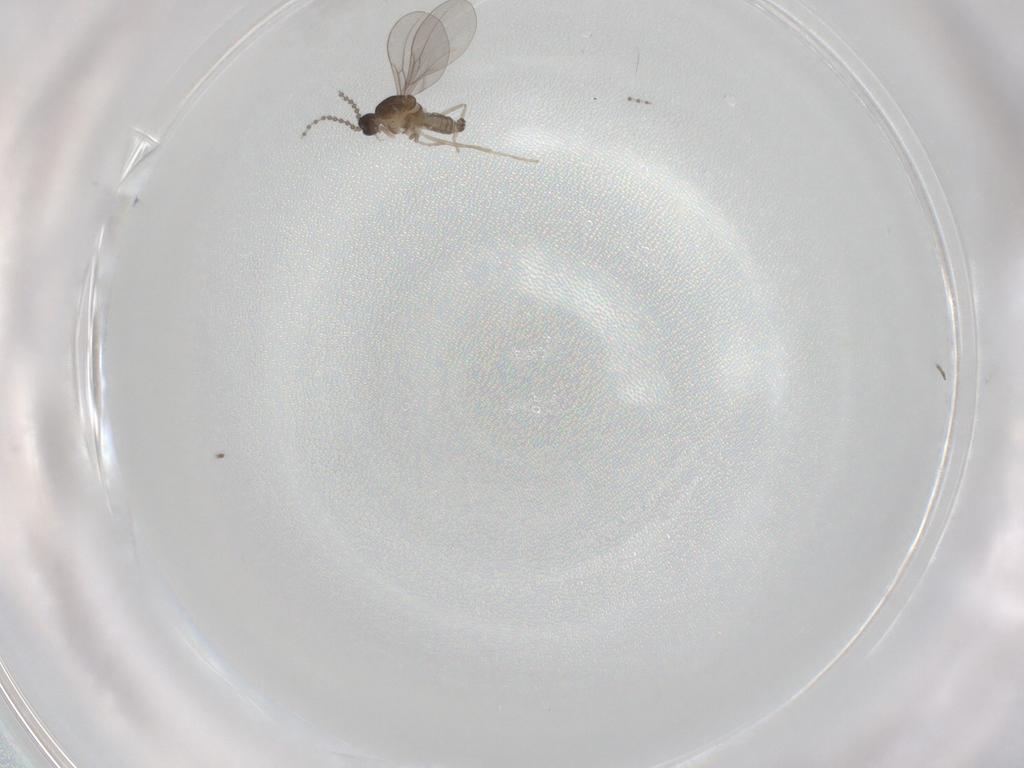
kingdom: Animalia
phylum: Arthropoda
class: Insecta
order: Diptera
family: Cecidomyiidae
